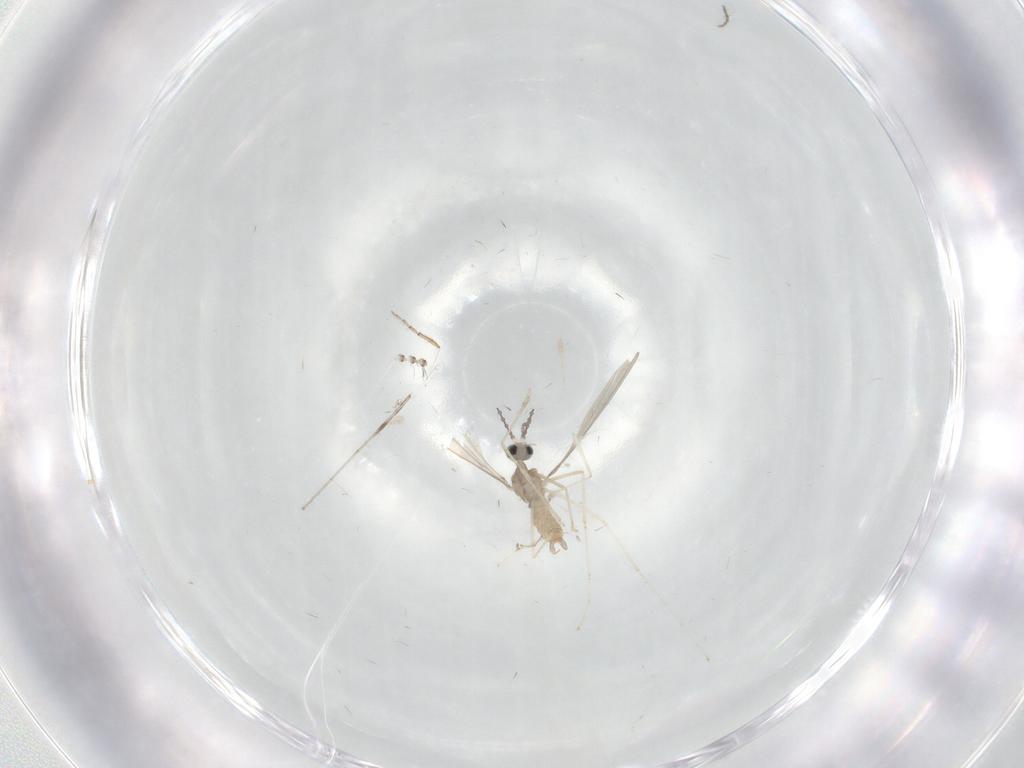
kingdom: Animalia
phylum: Arthropoda
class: Insecta
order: Diptera
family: Cecidomyiidae
